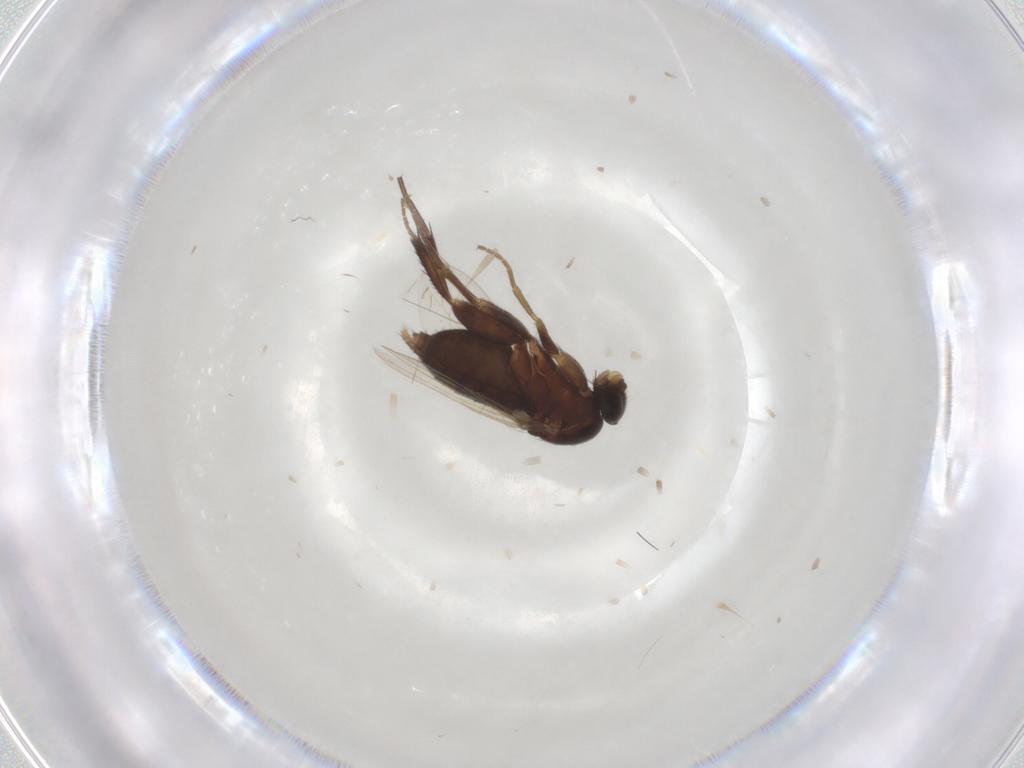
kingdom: Animalia
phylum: Arthropoda
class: Insecta
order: Diptera
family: Phoridae
